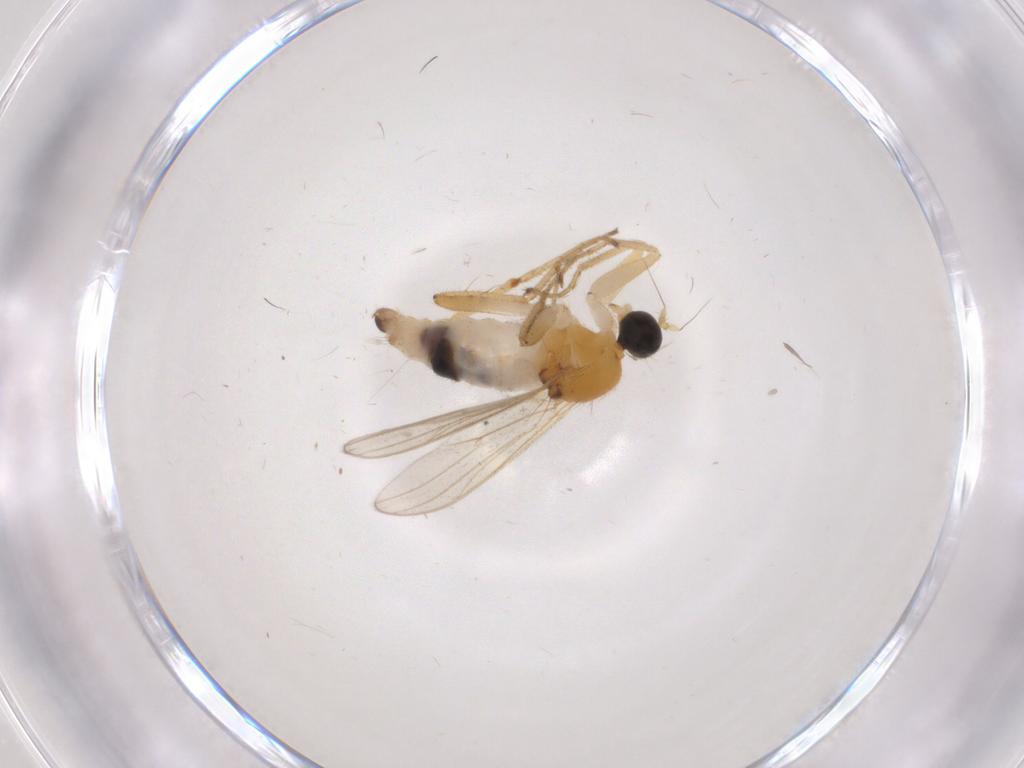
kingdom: Animalia
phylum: Arthropoda
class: Insecta
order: Diptera
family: Hybotidae
